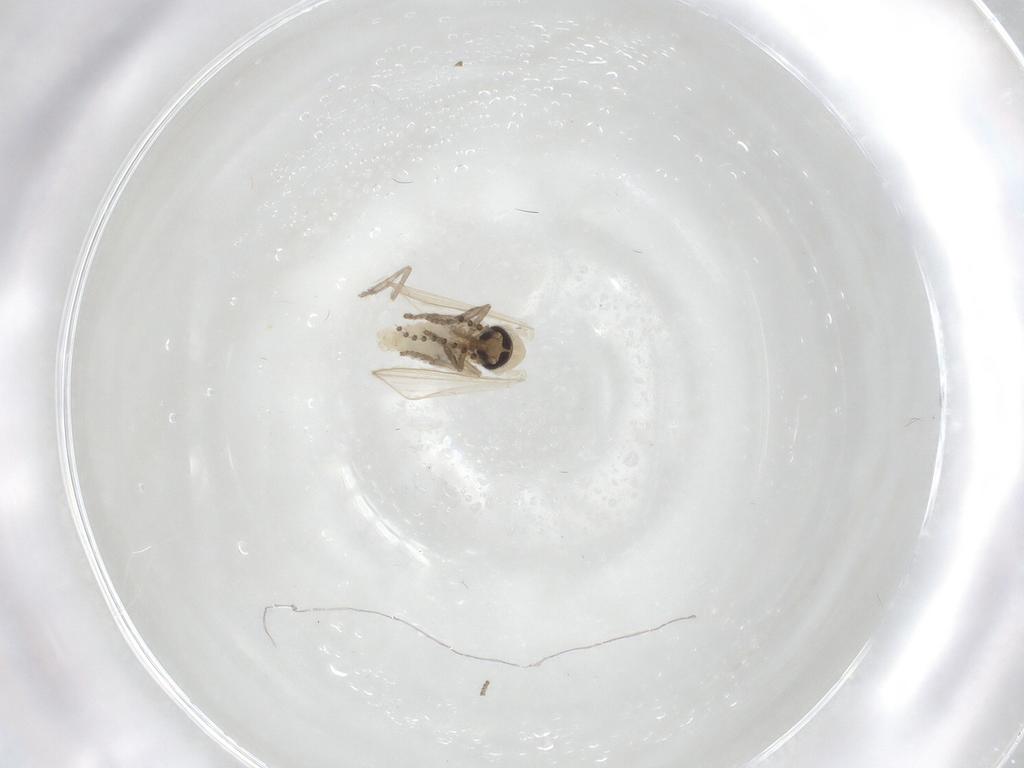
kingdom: Animalia
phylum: Arthropoda
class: Insecta
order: Diptera
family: Psychodidae
